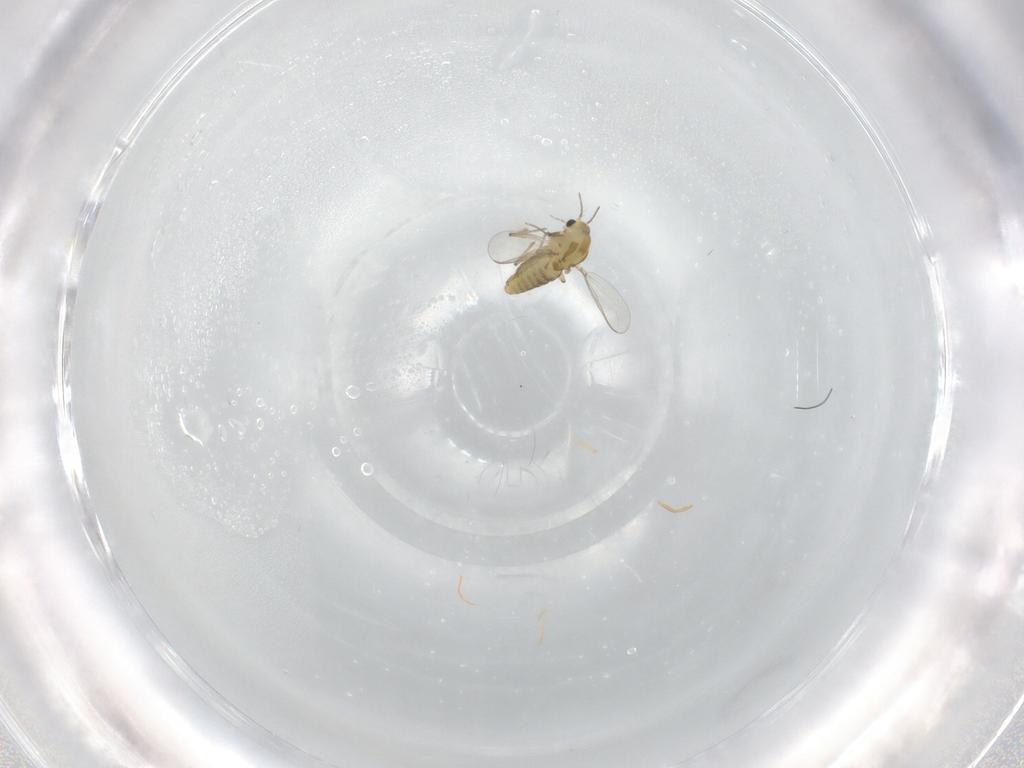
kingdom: Animalia
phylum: Arthropoda
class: Insecta
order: Diptera
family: Chironomidae
